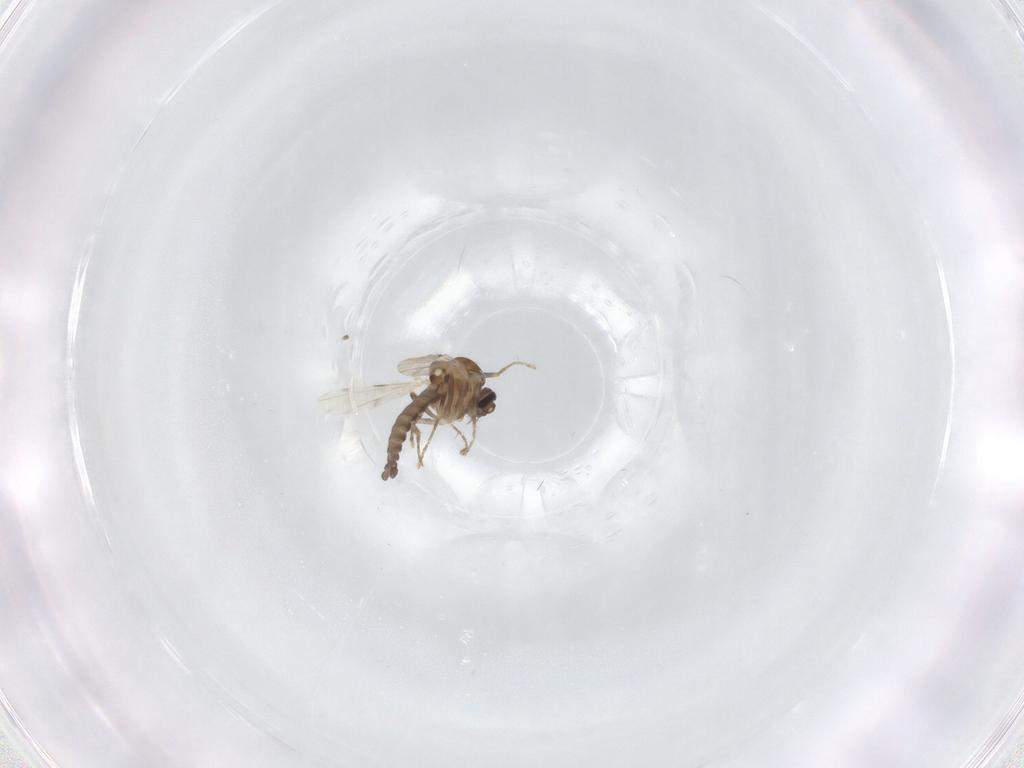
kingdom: Animalia
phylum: Arthropoda
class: Insecta
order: Diptera
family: Ceratopogonidae
